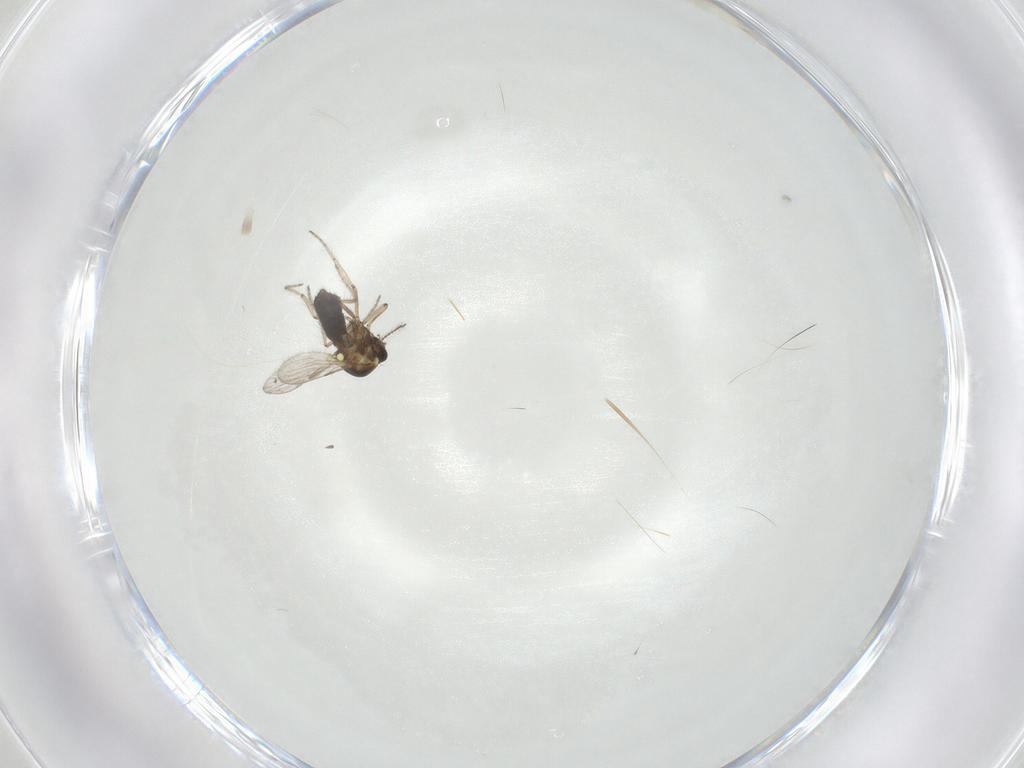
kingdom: Animalia
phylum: Arthropoda
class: Insecta
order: Diptera
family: Ceratopogonidae
